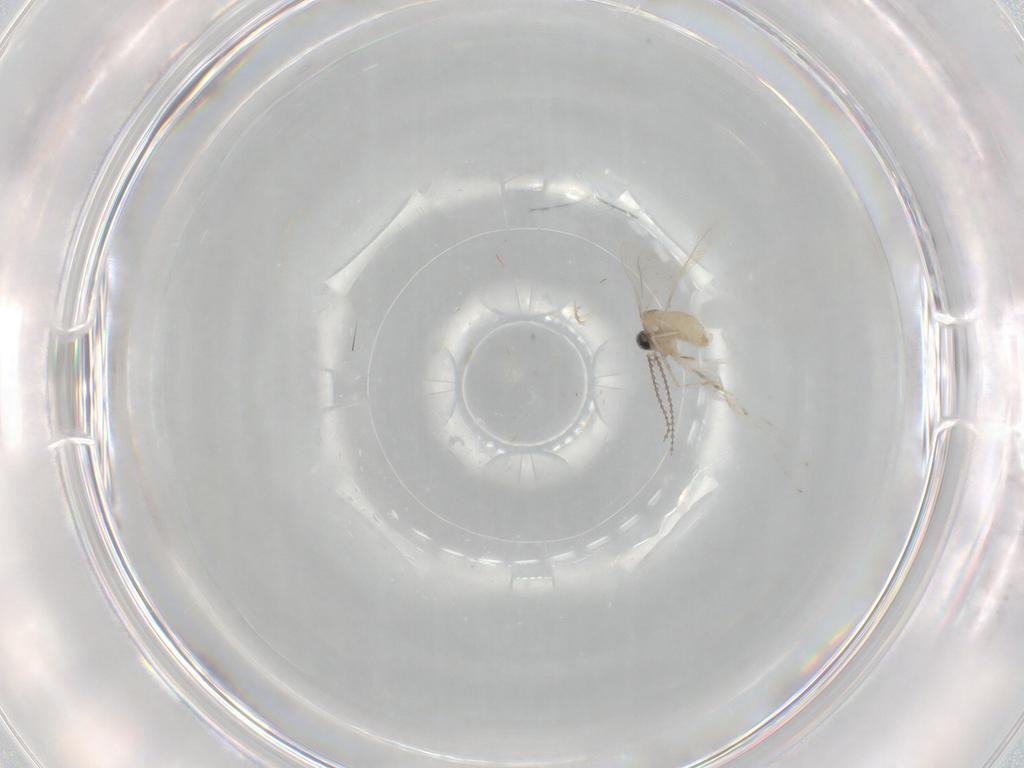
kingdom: Animalia
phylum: Arthropoda
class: Insecta
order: Diptera
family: Cecidomyiidae
